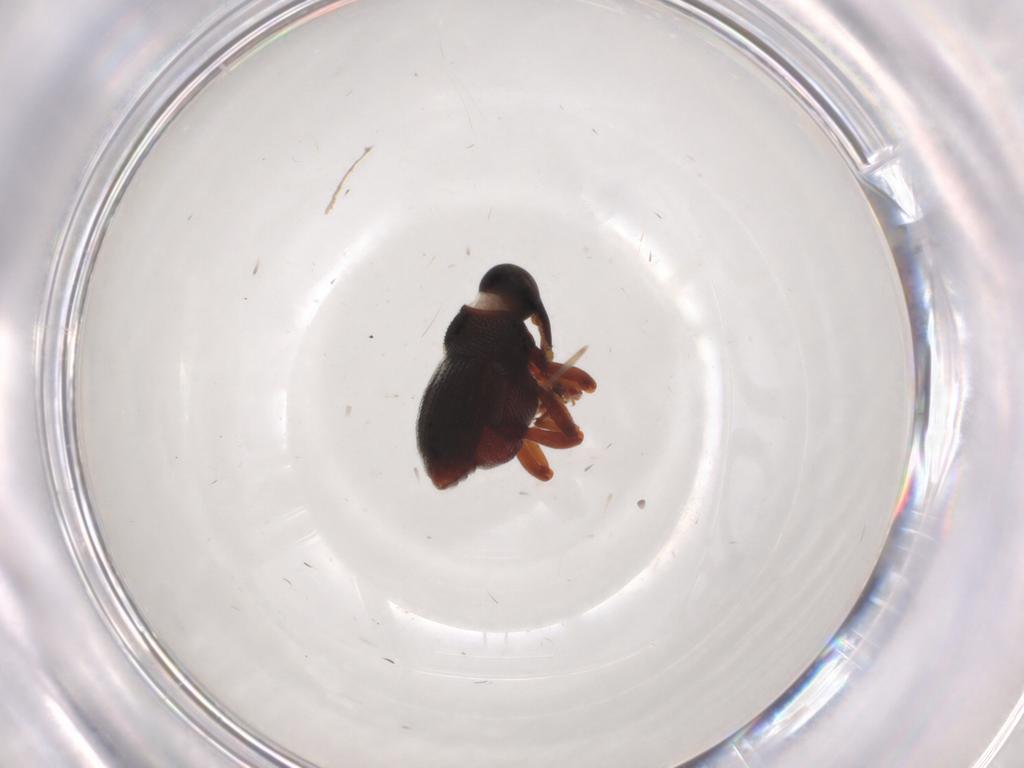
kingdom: Animalia
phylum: Arthropoda
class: Insecta
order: Coleoptera
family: Curculionidae
